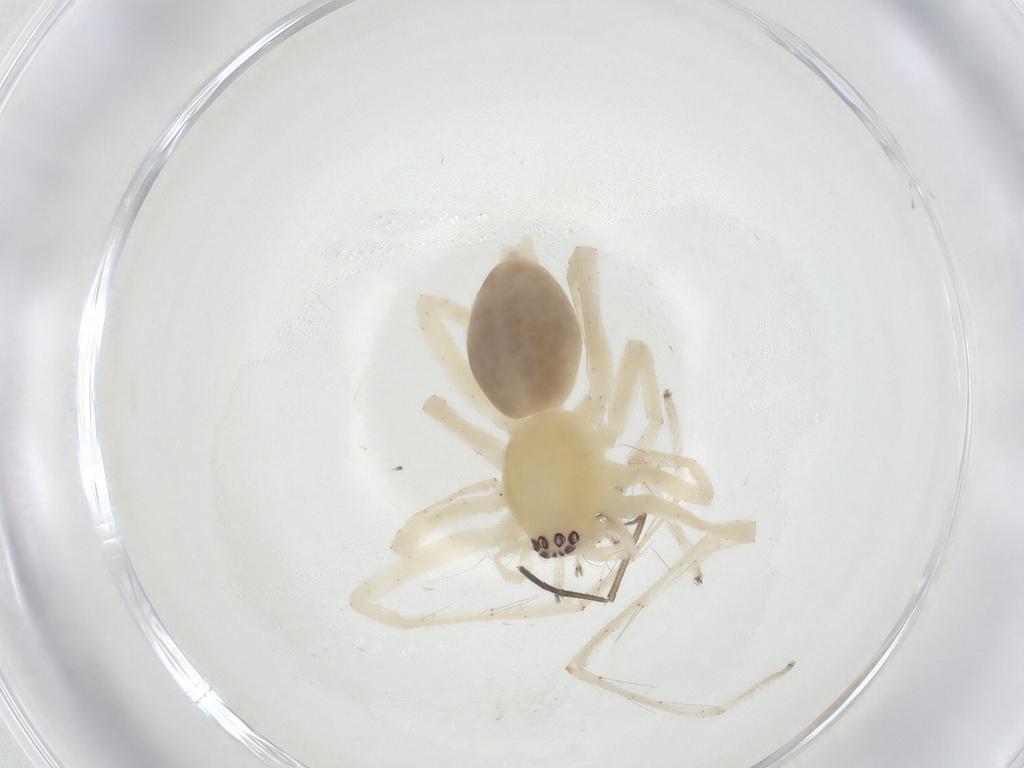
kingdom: Animalia
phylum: Arthropoda
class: Arachnida
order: Araneae
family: Anyphaenidae
